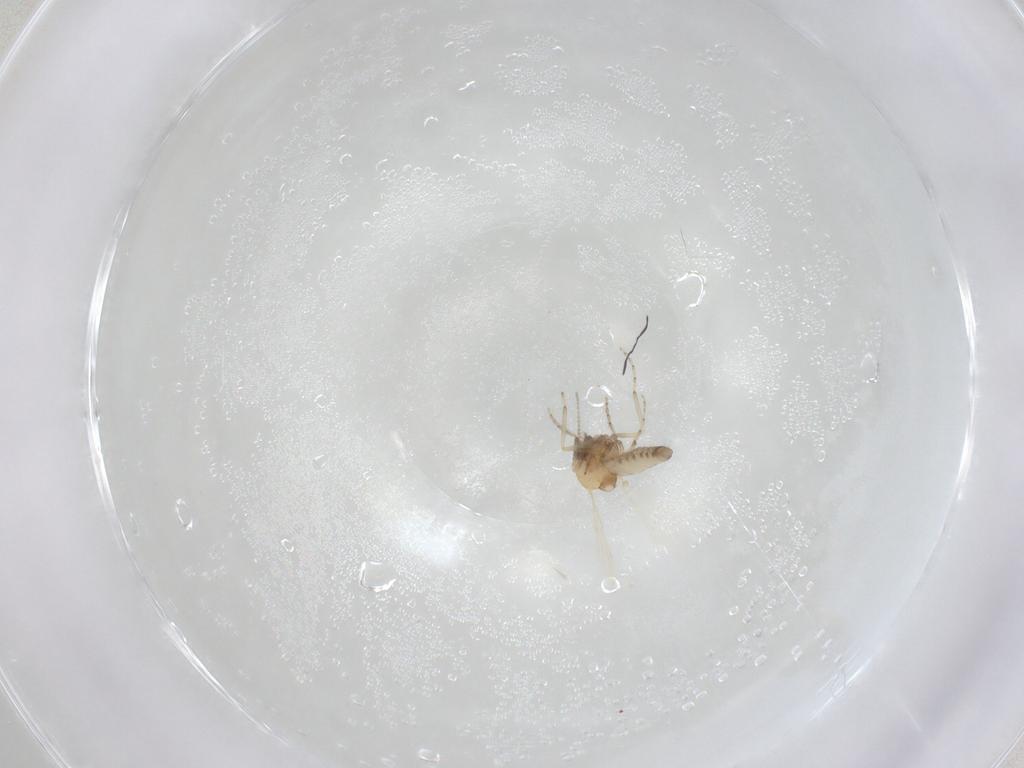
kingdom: Animalia
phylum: Arthropoda
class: Insecta
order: Diptera
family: Ceratopogonidae
